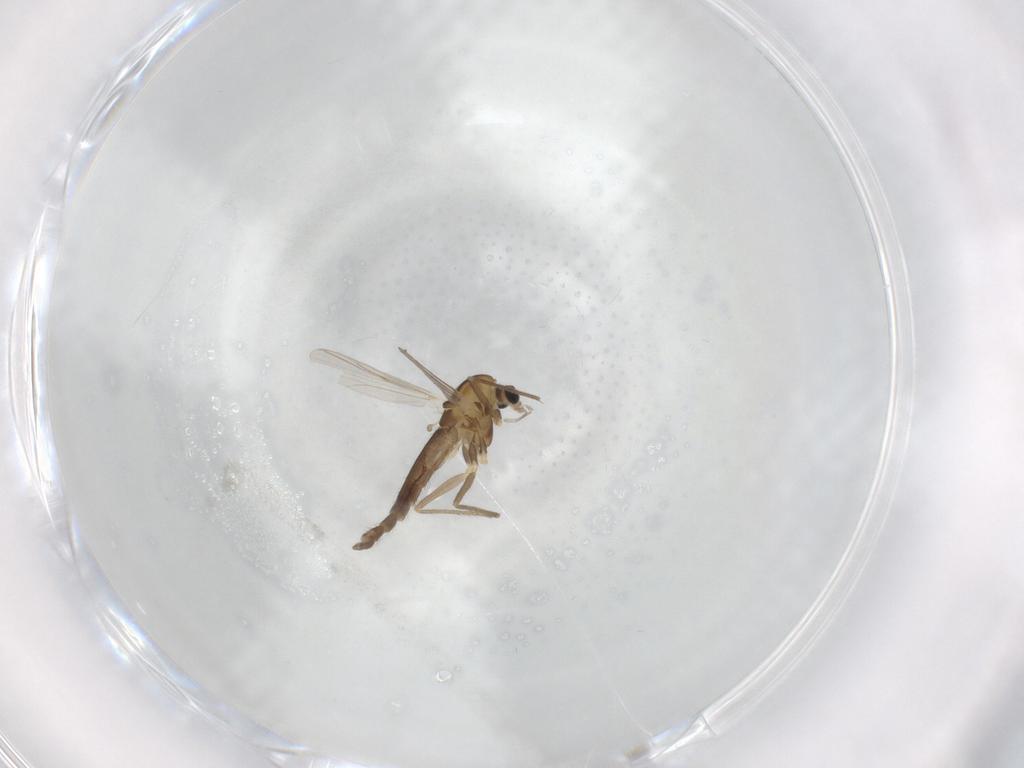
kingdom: Animalia
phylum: Arthropoda
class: Insecta
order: Diptera
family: Chironomidae
